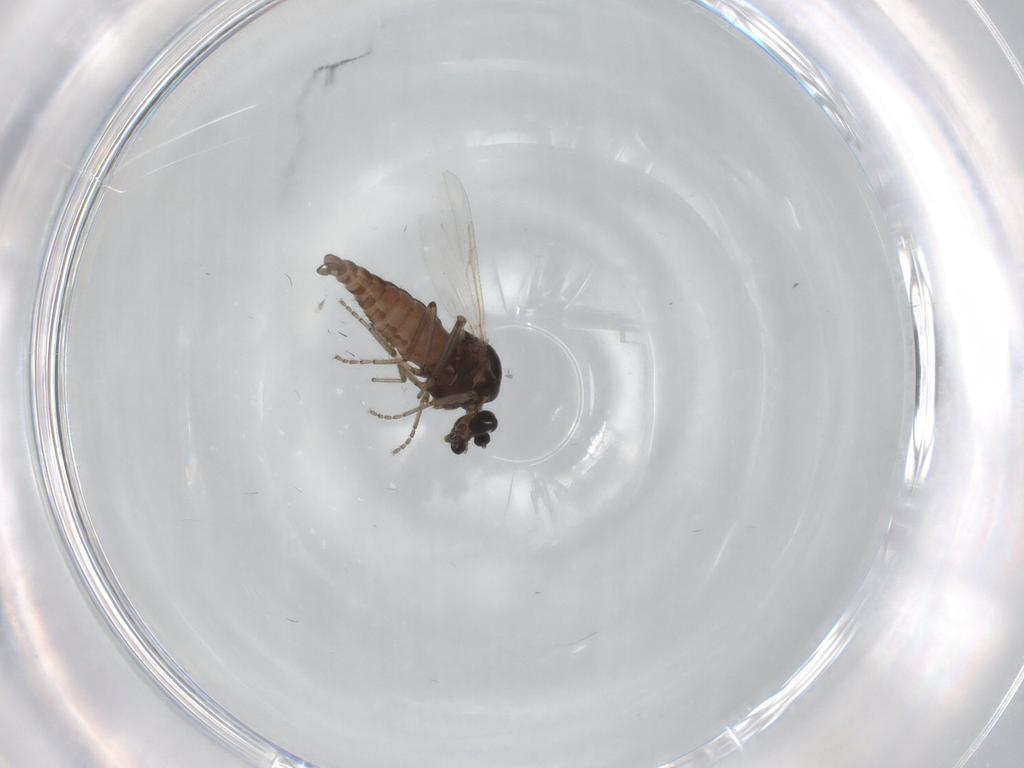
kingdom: Animalia
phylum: Arthropoda
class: Insecta
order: Diptera
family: Ceratopogonidae
